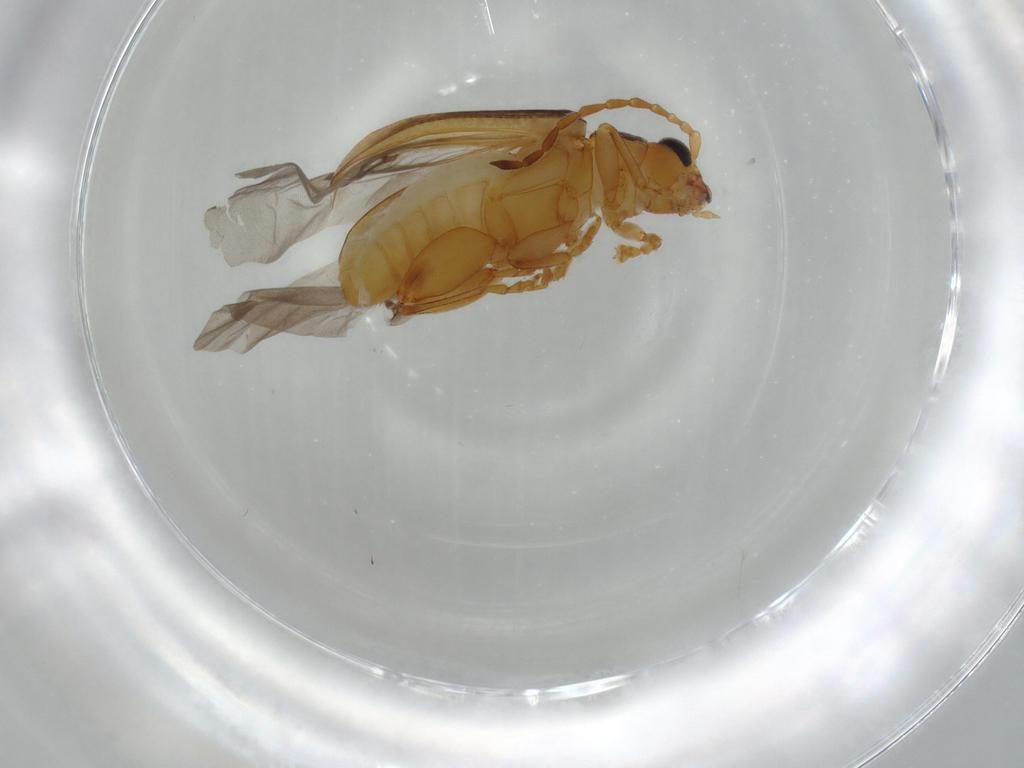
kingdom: Animalia
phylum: Arthropoda
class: Insecta
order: Coleoptera
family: Chrysomelidae
